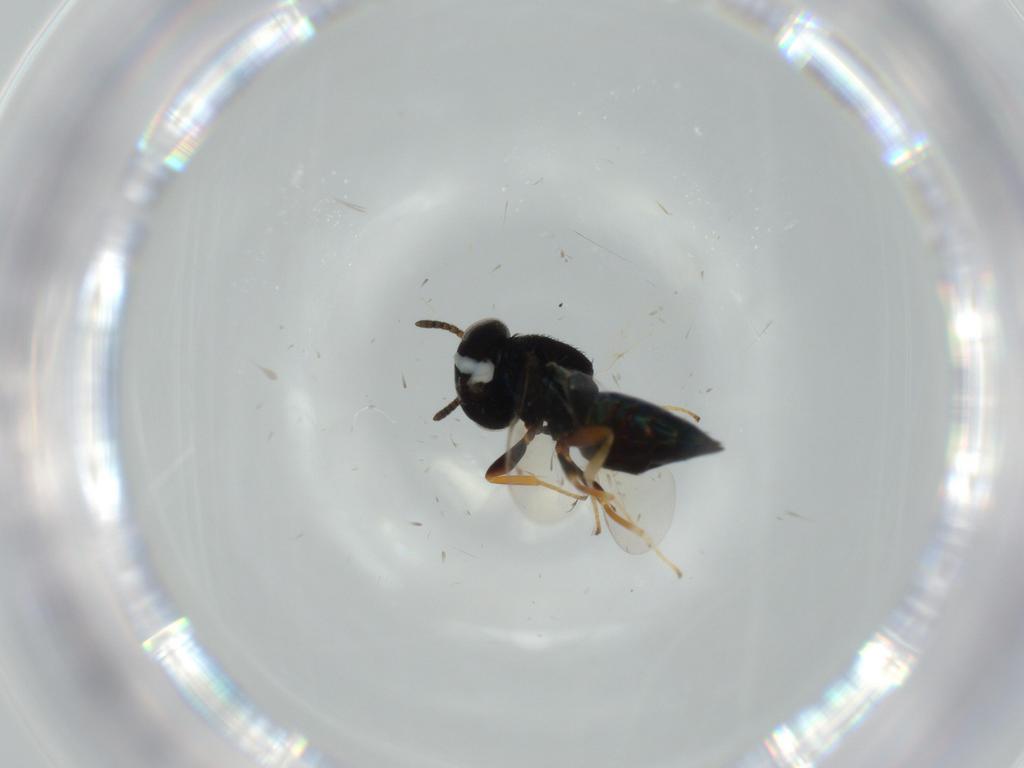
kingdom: Animalia
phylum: Arthropoda
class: Insecta
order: Hymenoptera
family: Diapriidae
